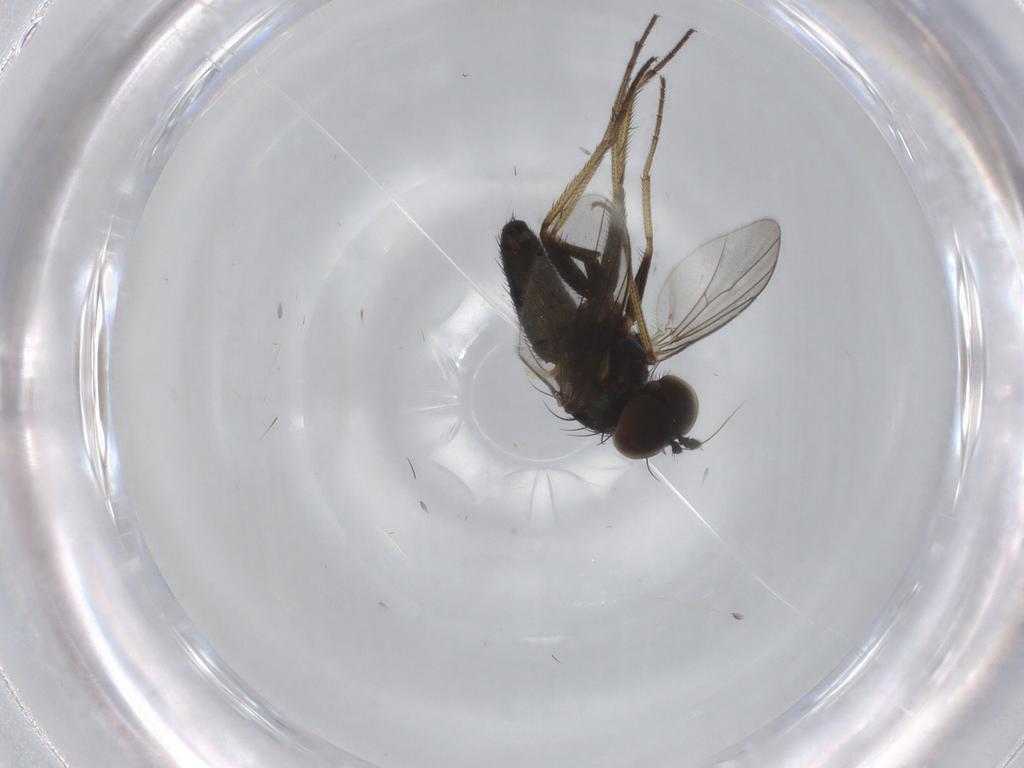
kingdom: Animalia
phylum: Arthropoda
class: Insecta
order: Diptera
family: Dolichopodidae
